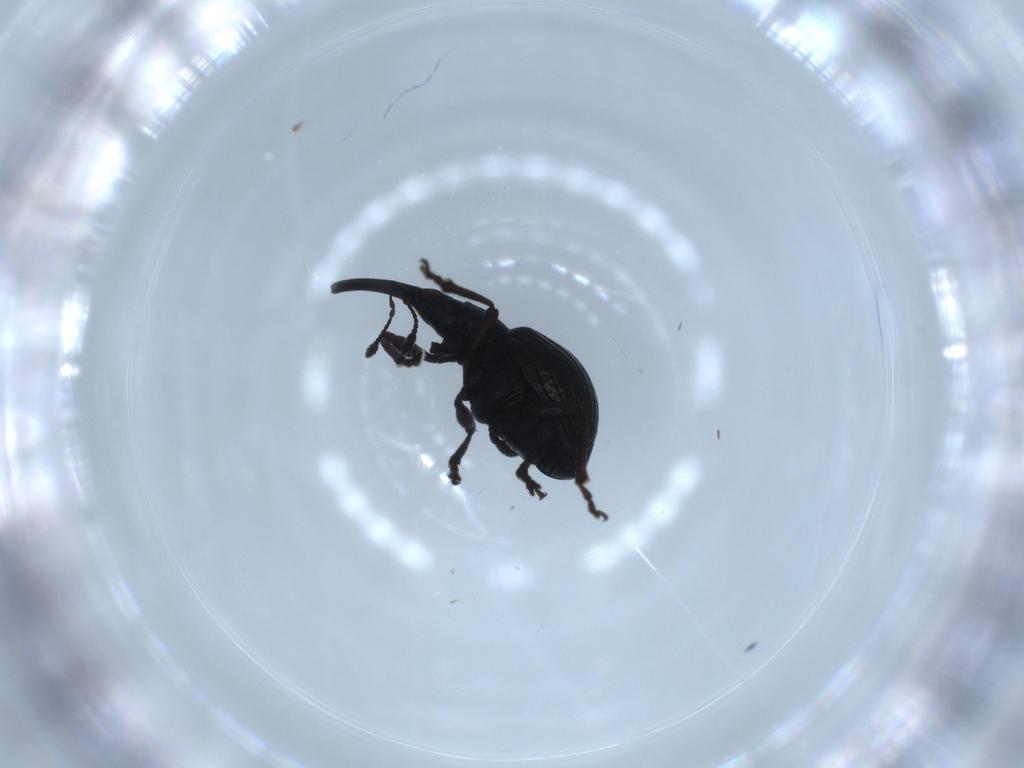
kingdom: Animalia
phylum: Arthropoda
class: Insecta
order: Coleoptera
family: Brentidae
